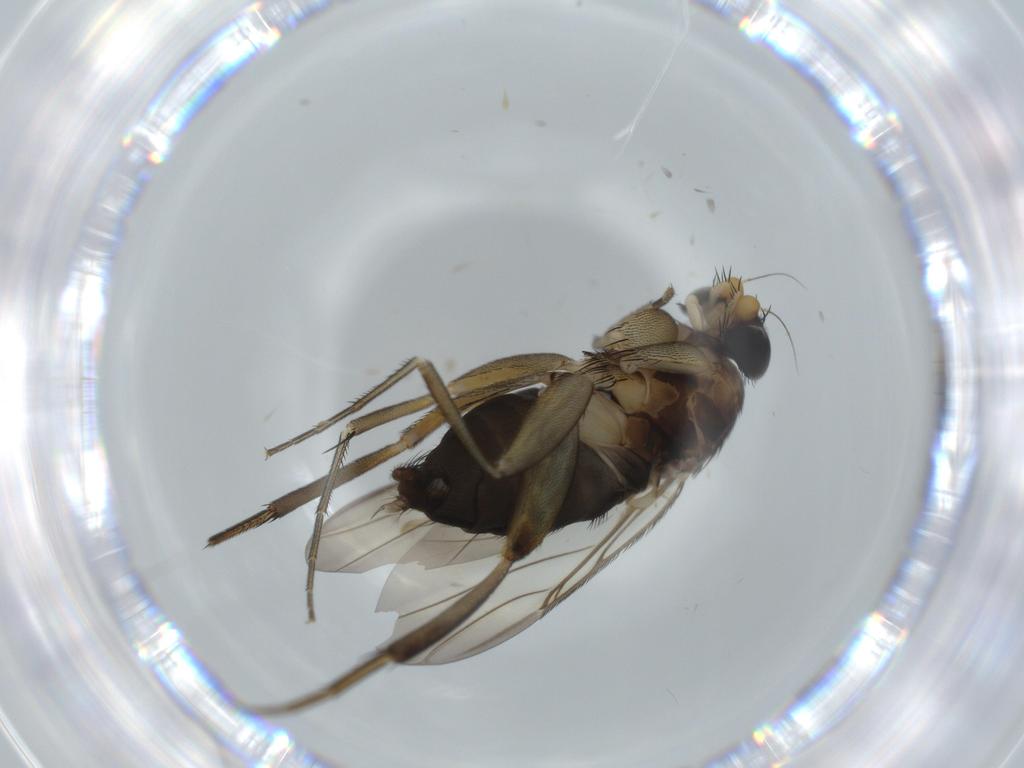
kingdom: Animalia
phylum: Arthropoda
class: Insecta
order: Diptera
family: Phoridae
